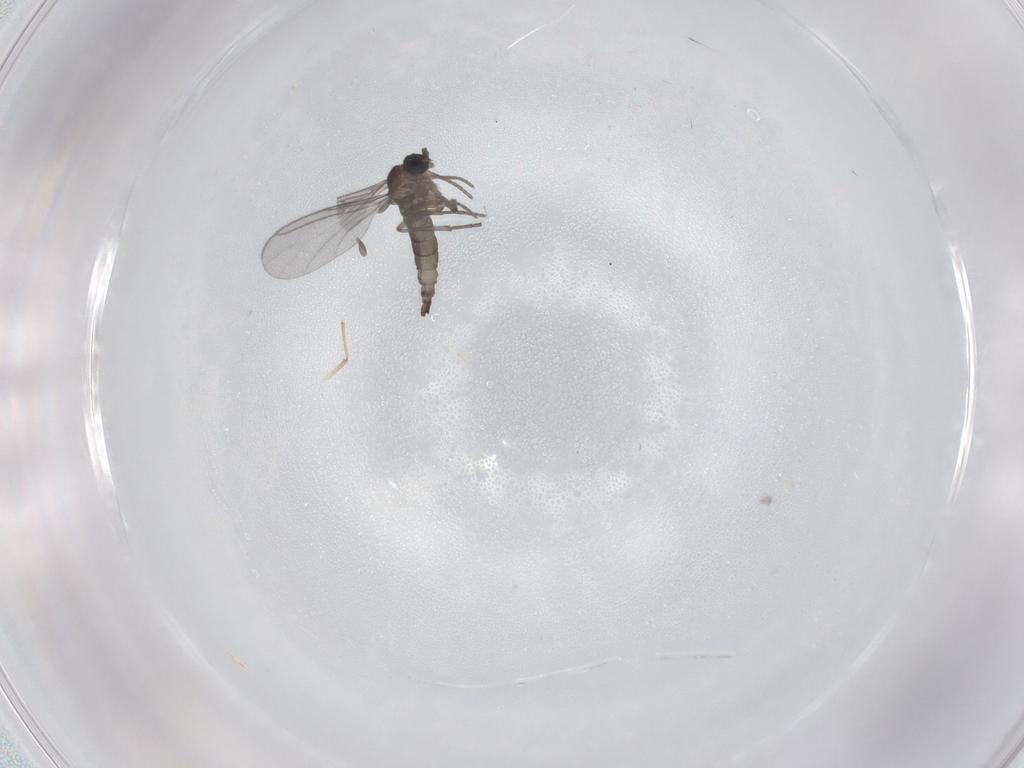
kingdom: Animalia
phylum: Arthropoda
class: Insecta
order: Diptera
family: Sciaridae
